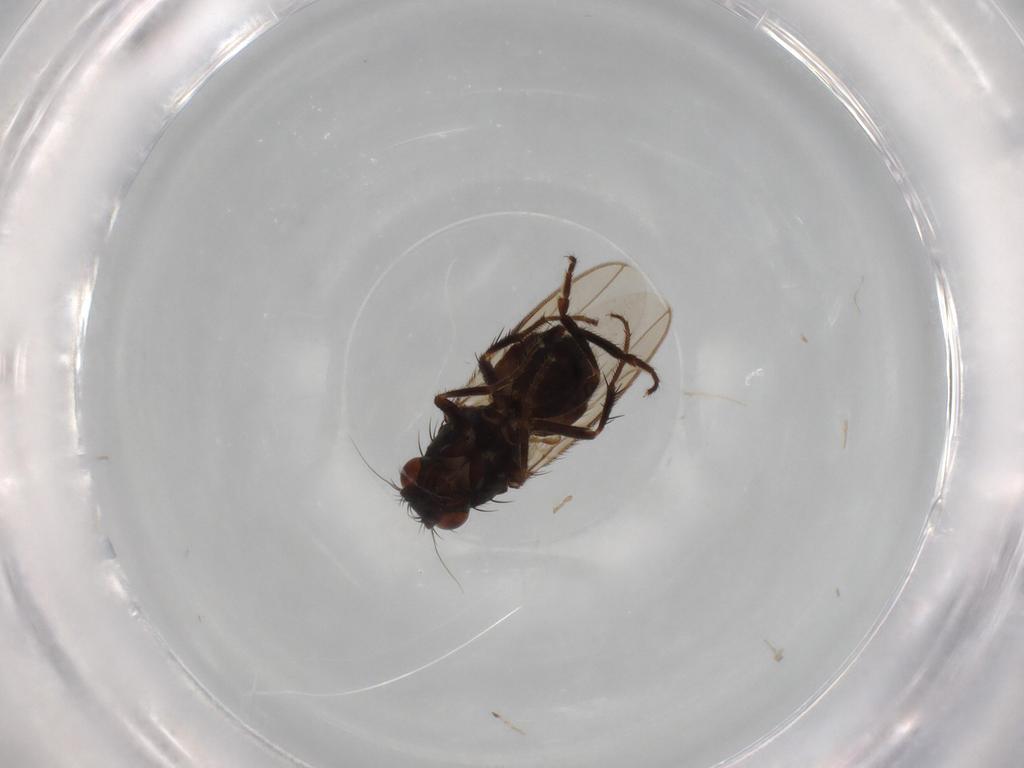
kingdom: Animalia
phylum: Arthropoda
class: Insecta
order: Diptera
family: Sphaeroceridae
